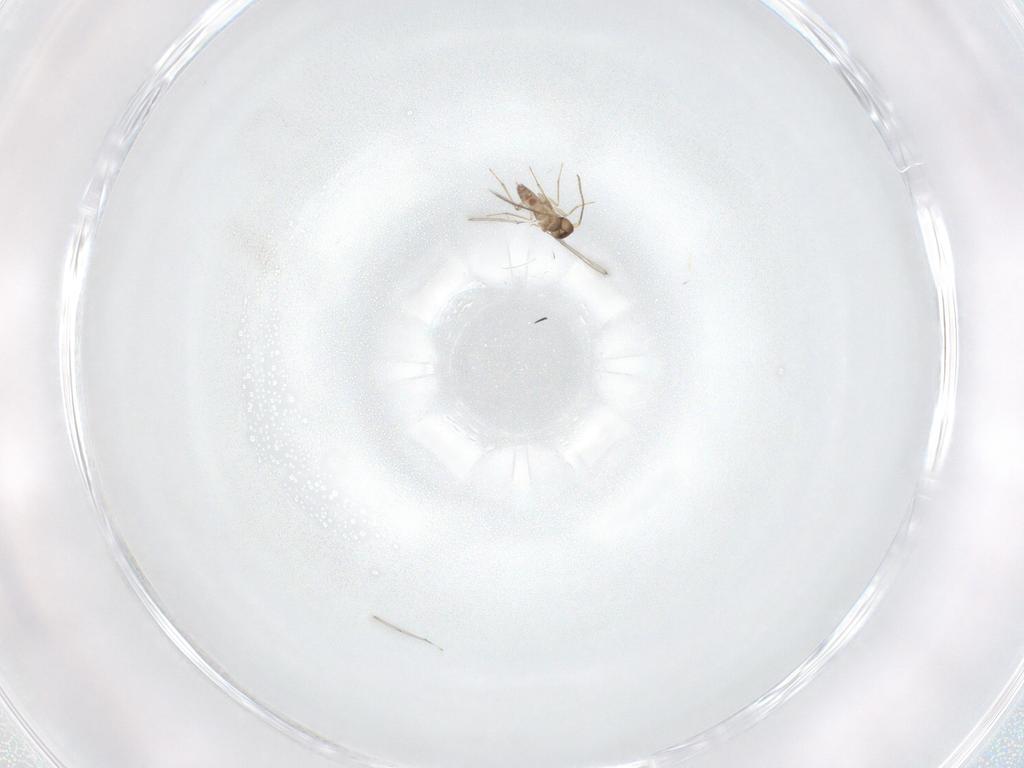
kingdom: Animalia
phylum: Arthropoda
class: Insecta
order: Hymenoptera
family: Mymaridae
